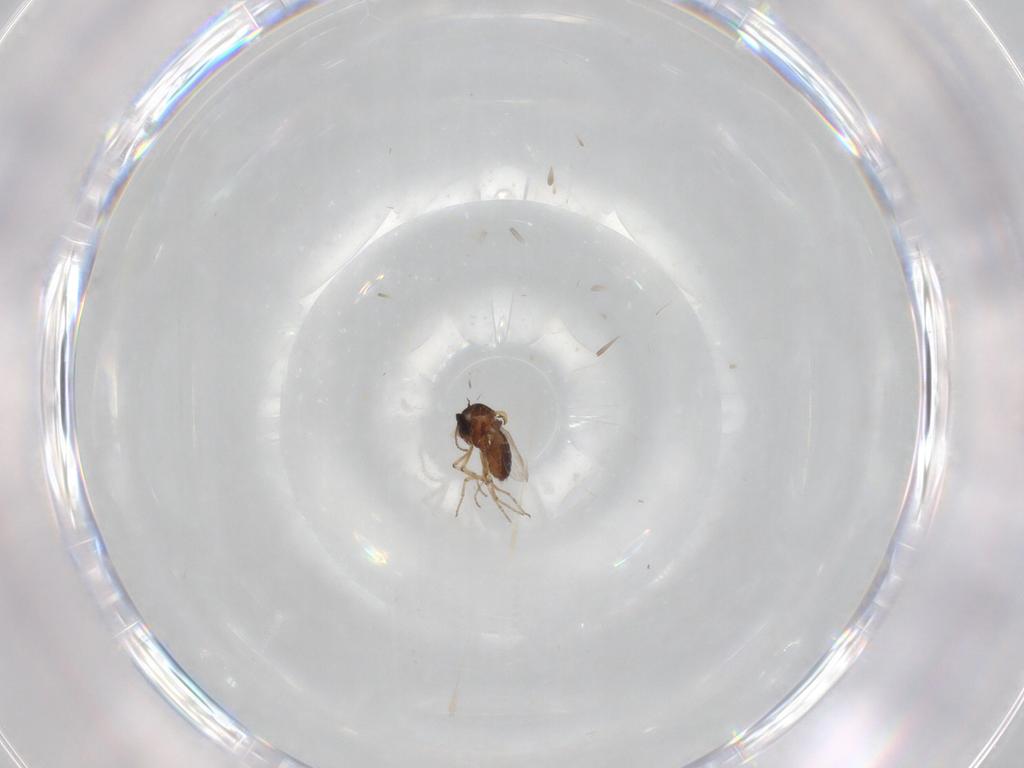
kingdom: Animalia
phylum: Arthropoda
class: Insecta
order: Diptera
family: Ceratopogonidae
